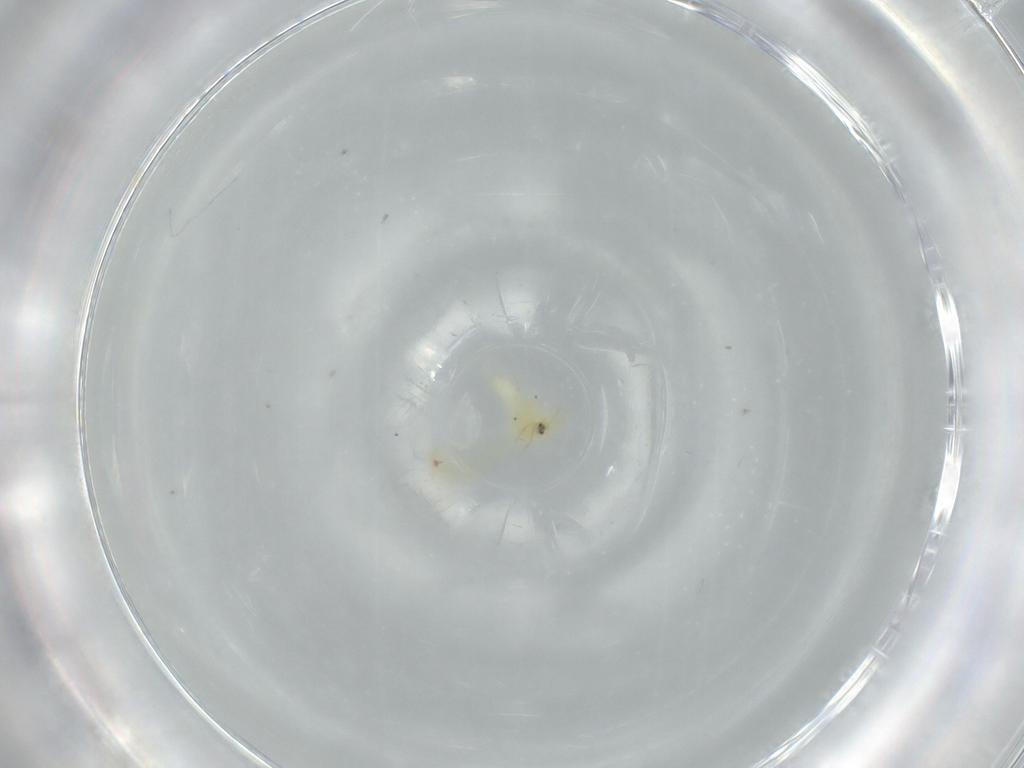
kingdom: Animalia
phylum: Arthropoda
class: Insecta
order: Hemiptera
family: Aleyrodidae
